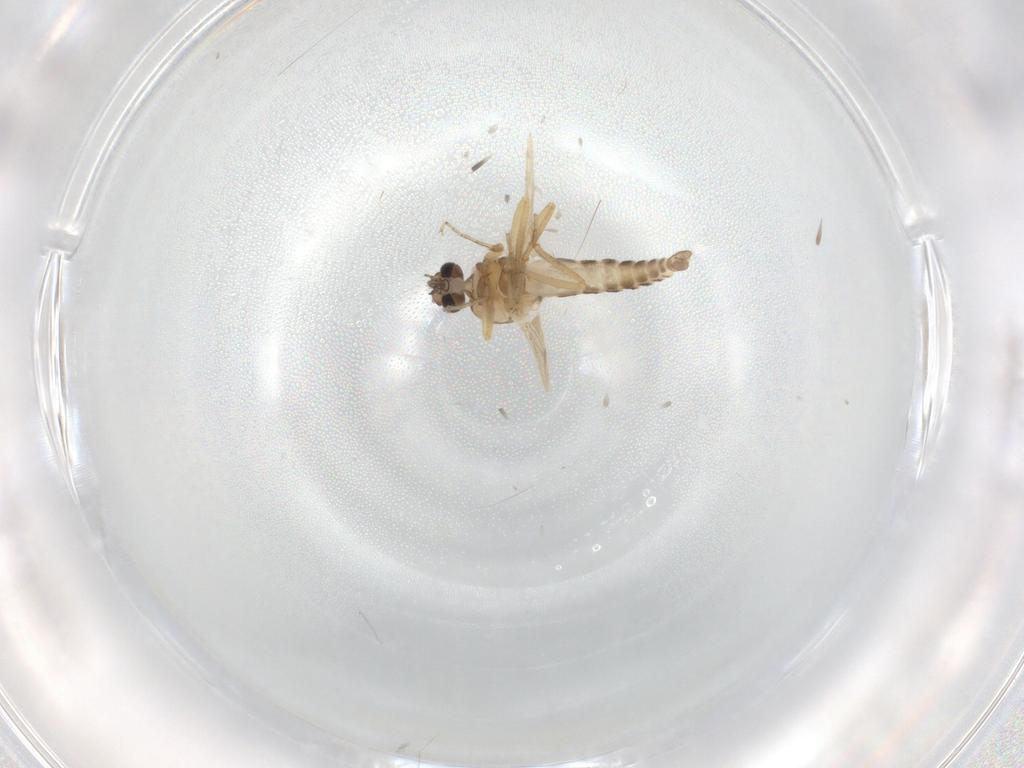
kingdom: Animalia
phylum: Arthropoda
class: Insecta
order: Diptera
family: Ceratopogonidae
